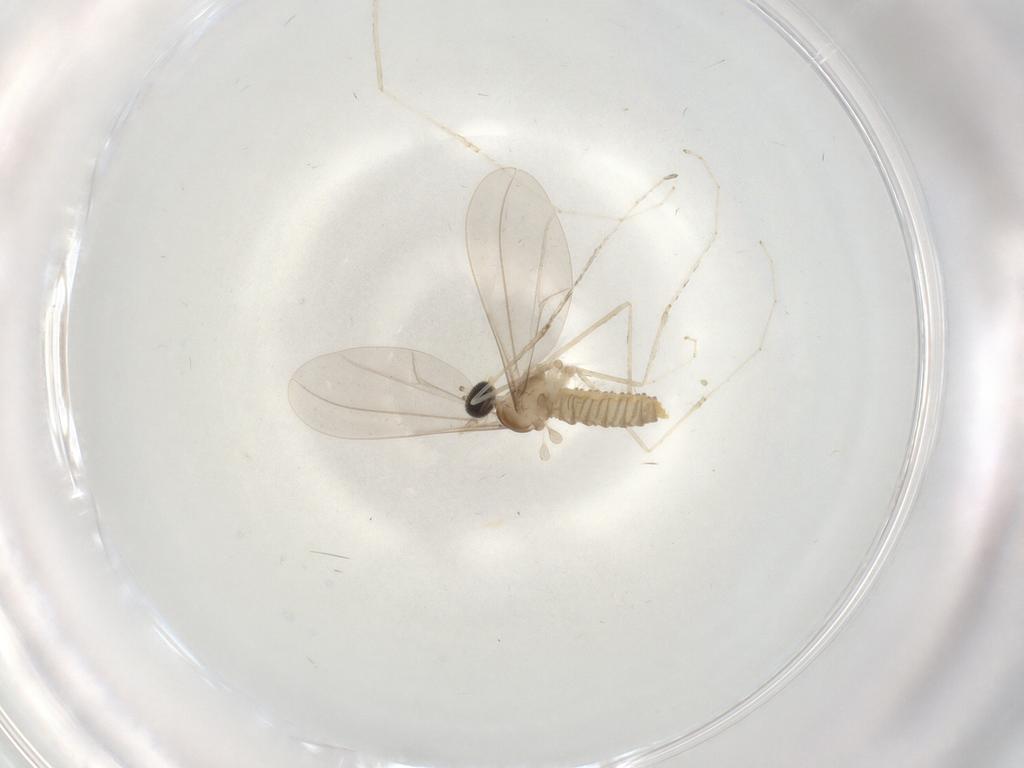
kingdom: Animalia
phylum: Arthropoda
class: Insecta
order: Diptera
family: Cecidomyiidae
